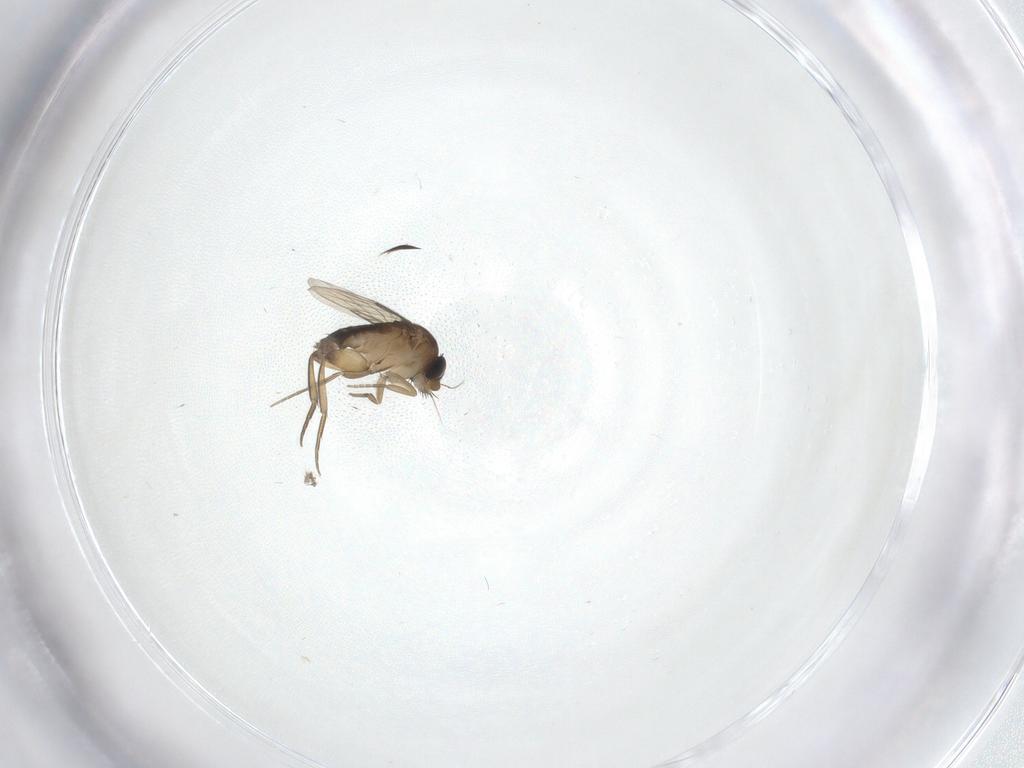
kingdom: Animalia
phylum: Arthropoda
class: Insecta
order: Diptera
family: Phoridae
